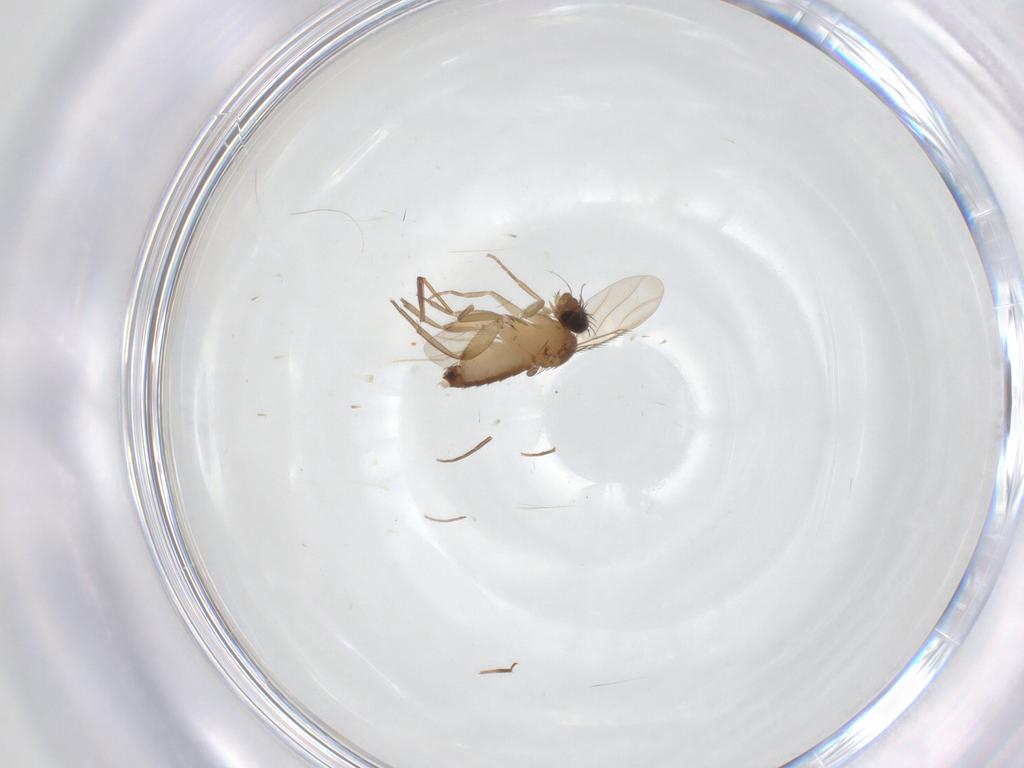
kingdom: Animalia
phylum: Arthropoda
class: Insecta
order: Diptera
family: Phoridae
